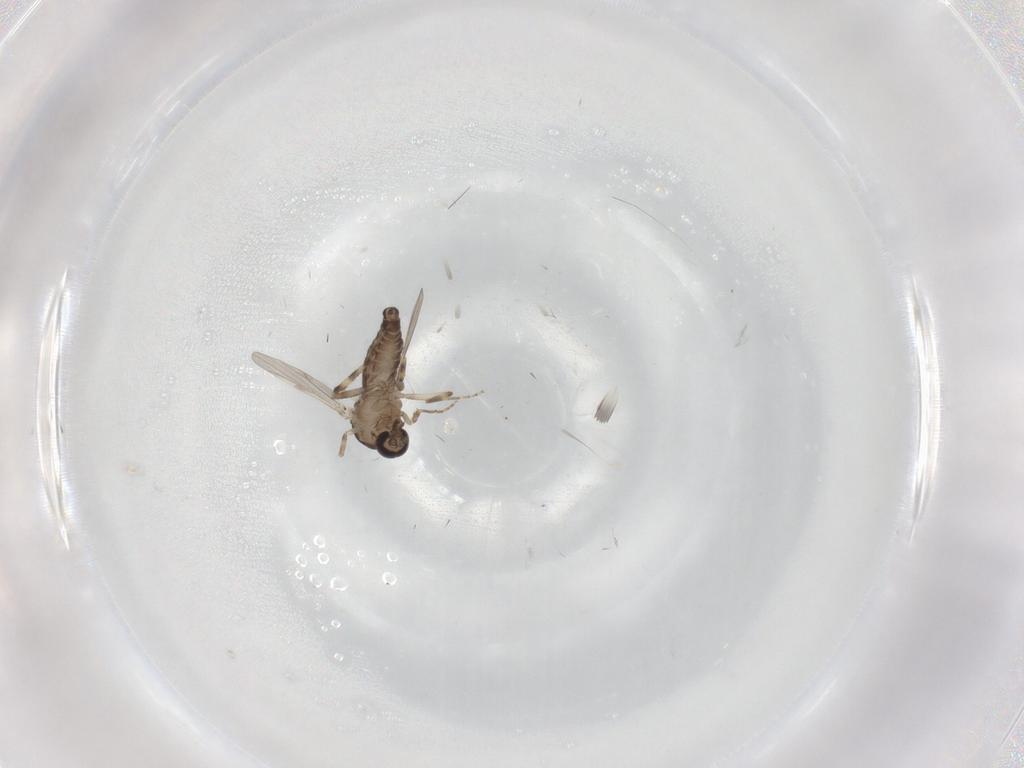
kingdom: Animalia
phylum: Arthropoda
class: Insecta
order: Diptera
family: Ceratopogonidae
